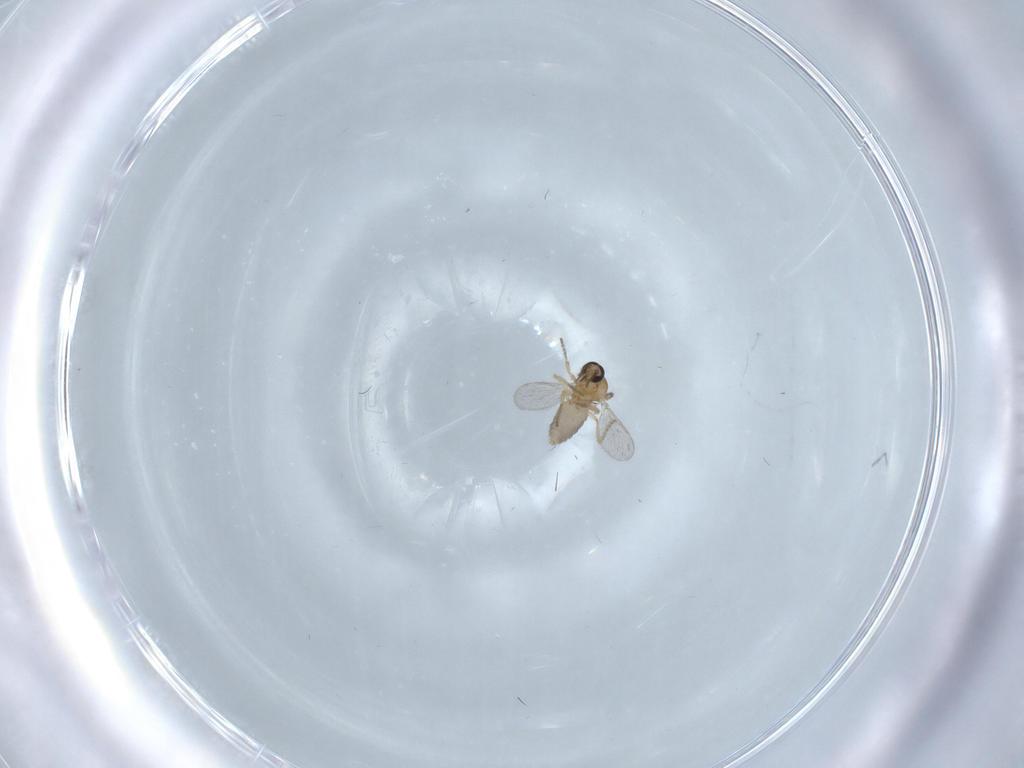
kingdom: Animalia
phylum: Arthropoda
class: Insecta
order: Diptera
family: Ceratopogonidae
